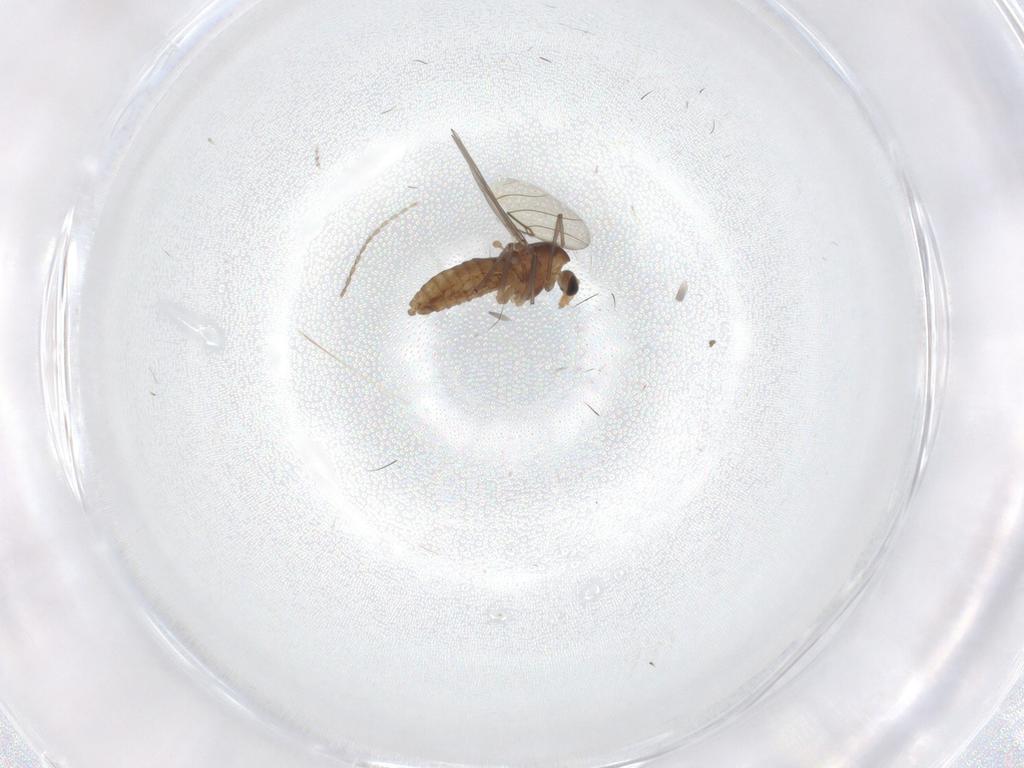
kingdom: Animalia
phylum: Arthropoda
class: Insecta
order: Diptera
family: Chironomidae
